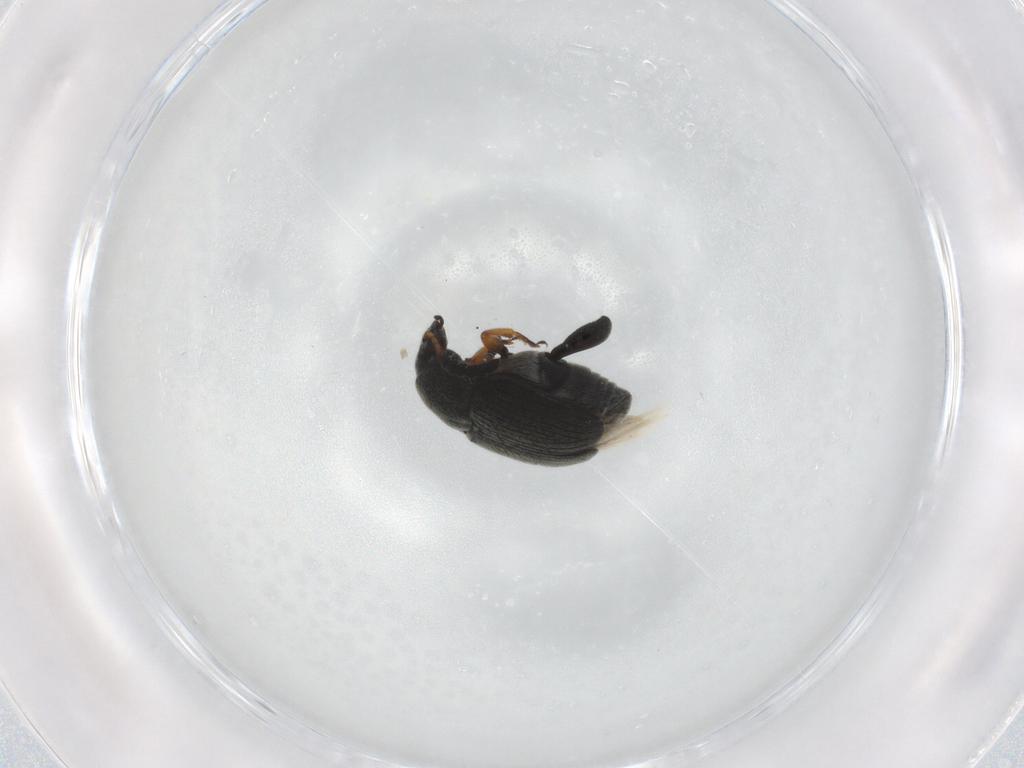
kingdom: Animalia
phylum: Arthropoda
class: Insecta
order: Coleoptera
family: Chrysomelidae
